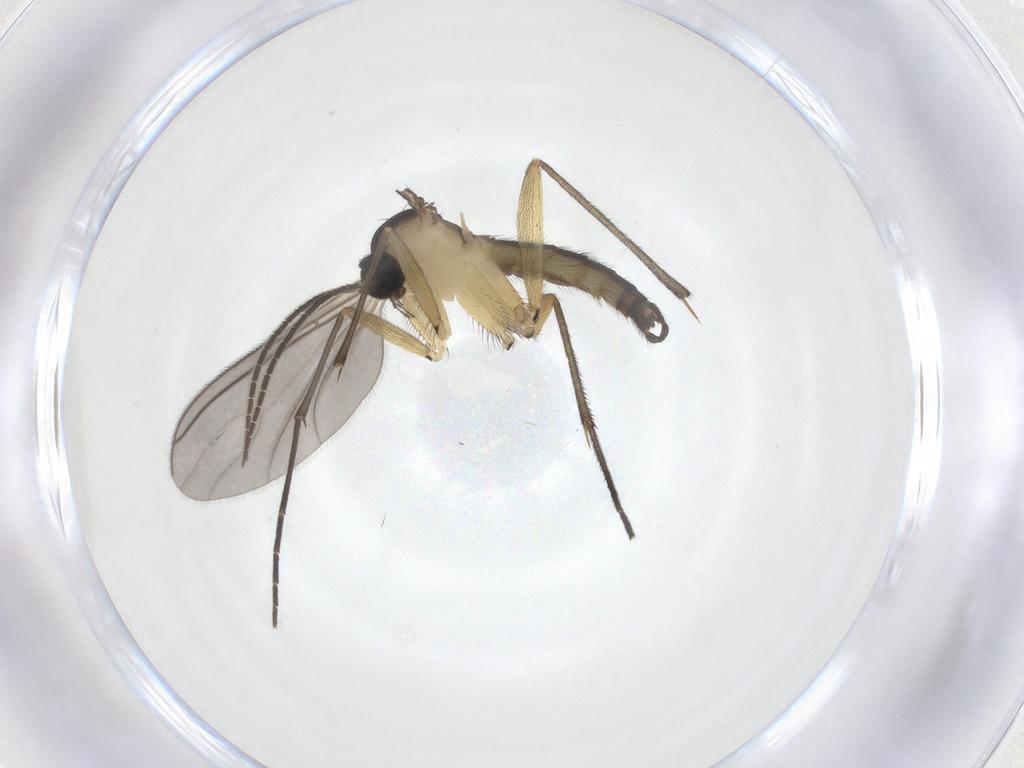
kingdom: Animalia
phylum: Arthropoda
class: Insecta
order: Diptera
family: Sciaridae
